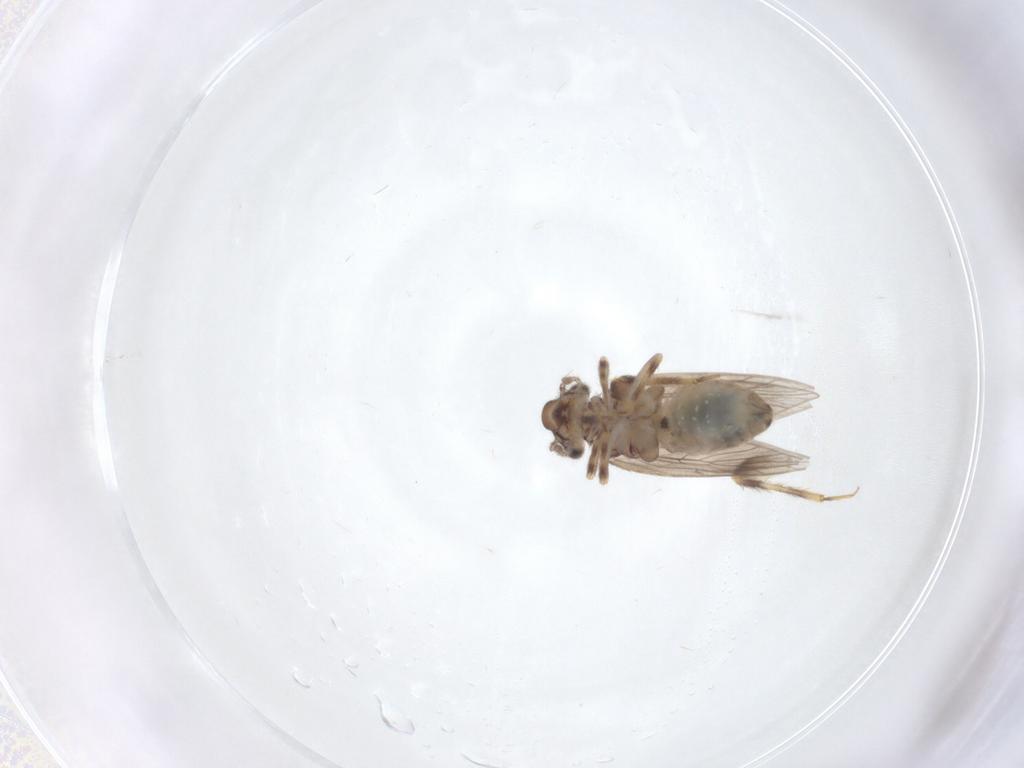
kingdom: Animalia
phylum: Arthropoda
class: Insecta
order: Psocodea
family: Lepidopsocidae
